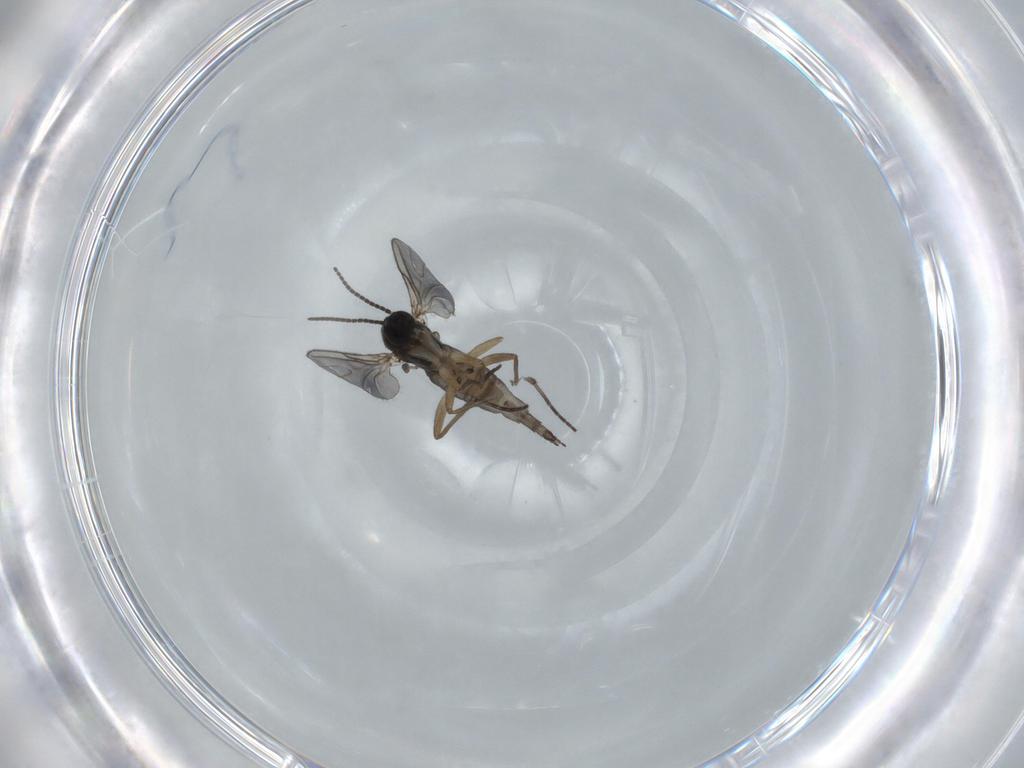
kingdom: Animalia
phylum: Arthropoda
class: Insecta
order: Diptera
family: Sciaridae
